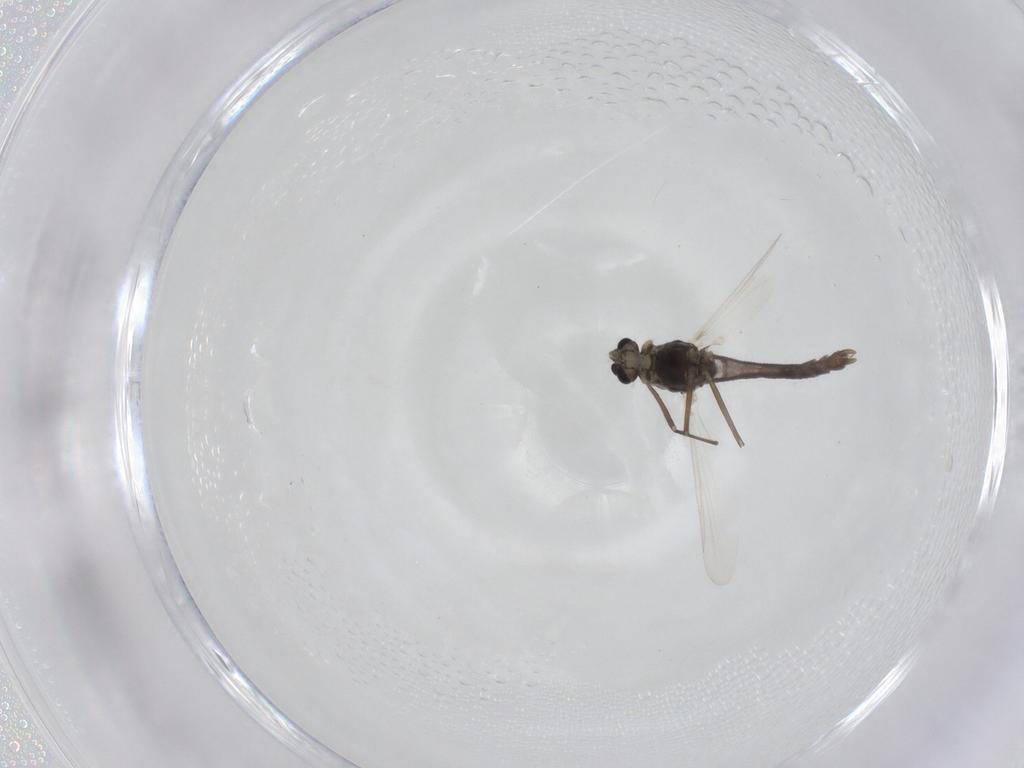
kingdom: Animalia
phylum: Arthropoda
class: Insecta
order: Diptera
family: Chironomidae
